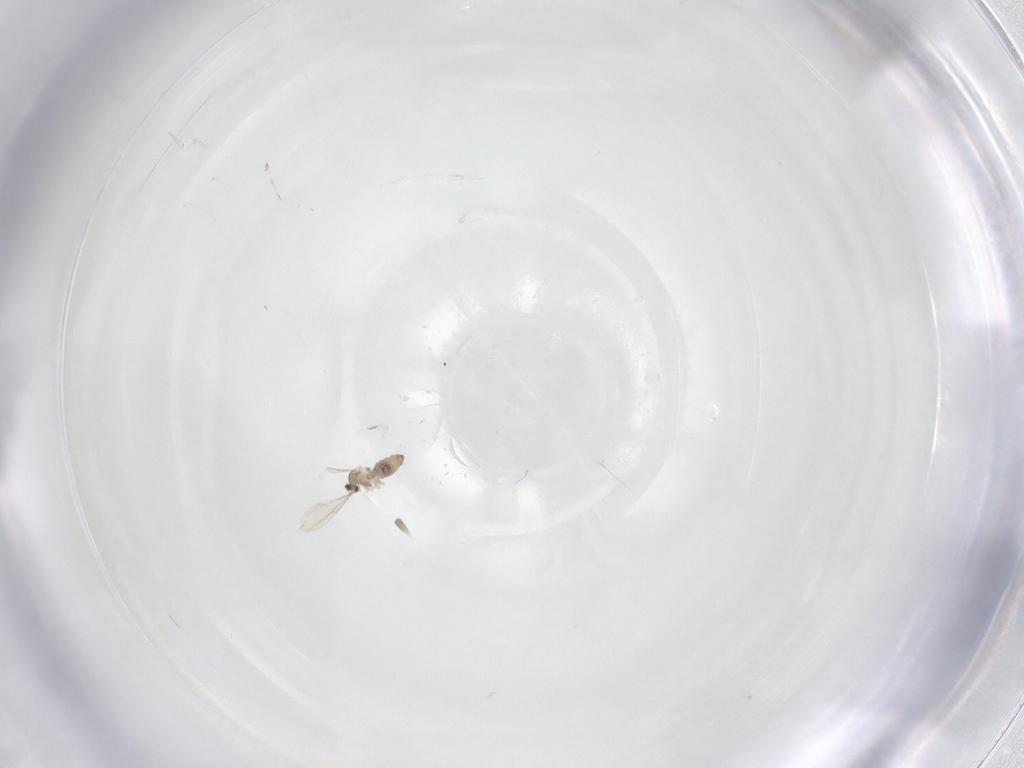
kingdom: Animalia
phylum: Arthropoda
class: Insecta
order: Diptera
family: Cecidomyiidae
